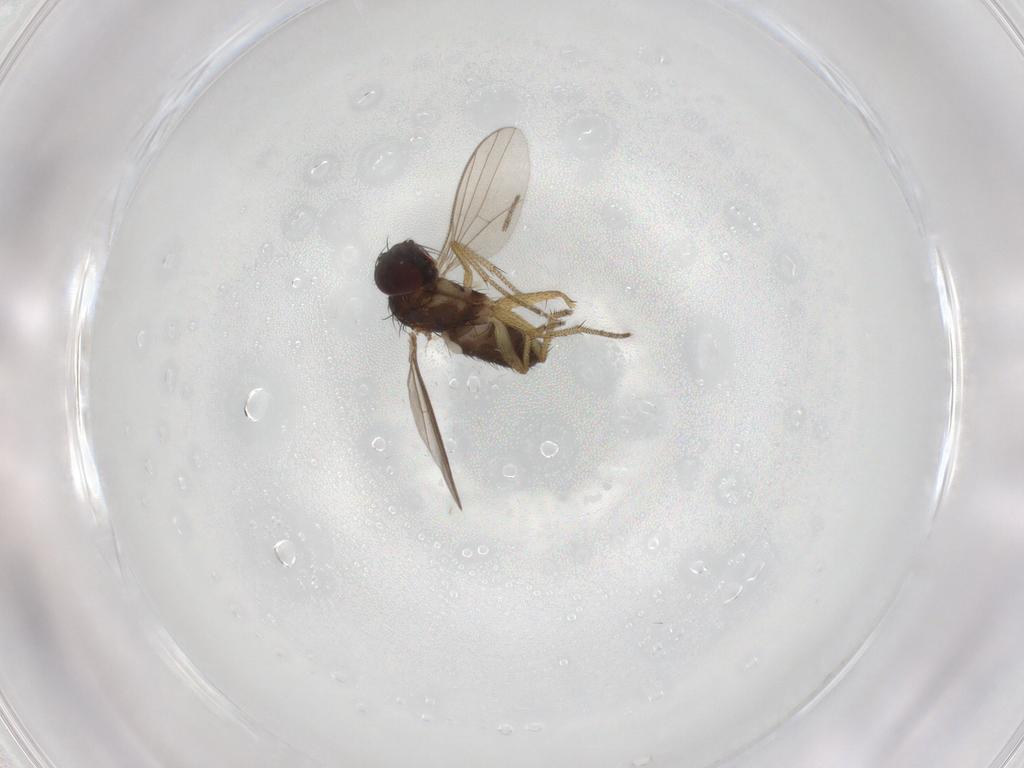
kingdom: Animalia
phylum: Arthropoda
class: Insecta
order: Diptera
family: Dolichopodidae
